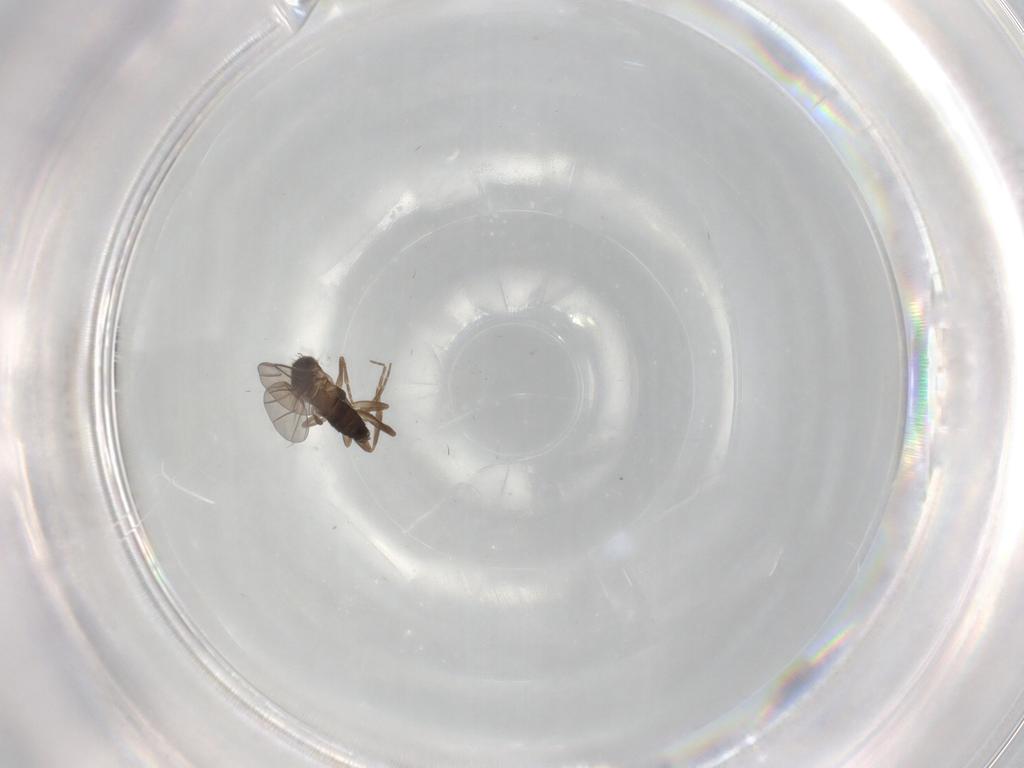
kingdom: Animalia
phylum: Arthropoda
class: Insecta
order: Diptera
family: Phoridae
